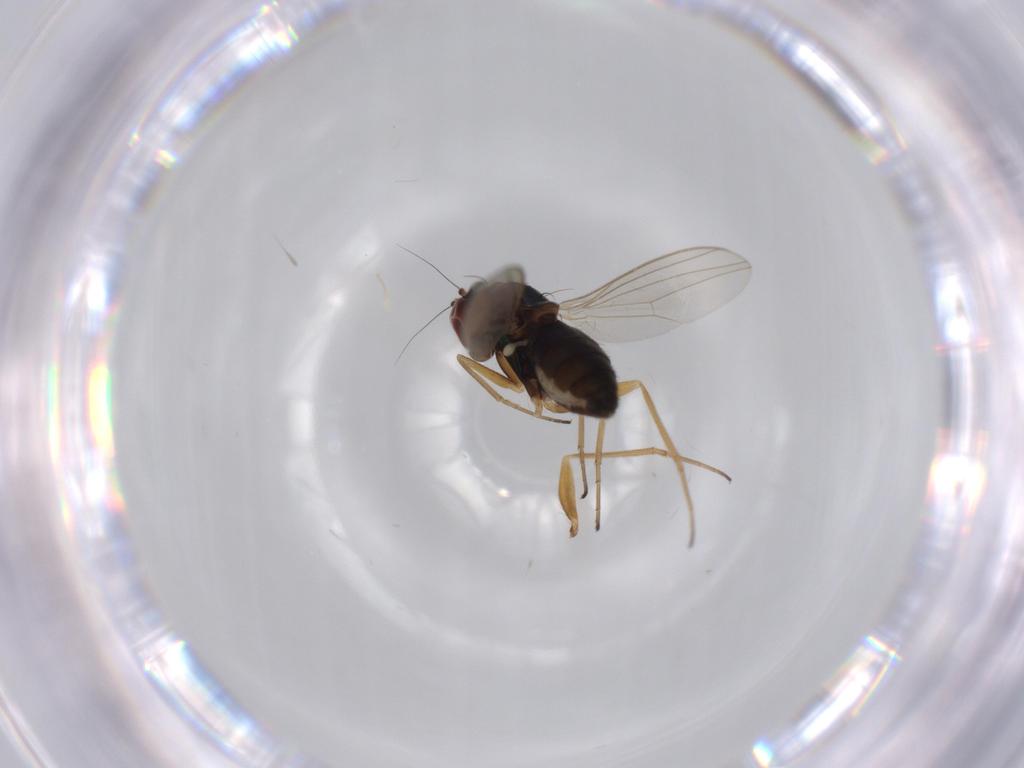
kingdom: Animalia
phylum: Arthropoda
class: Insecta
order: Diptera
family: Dolichopodidae
